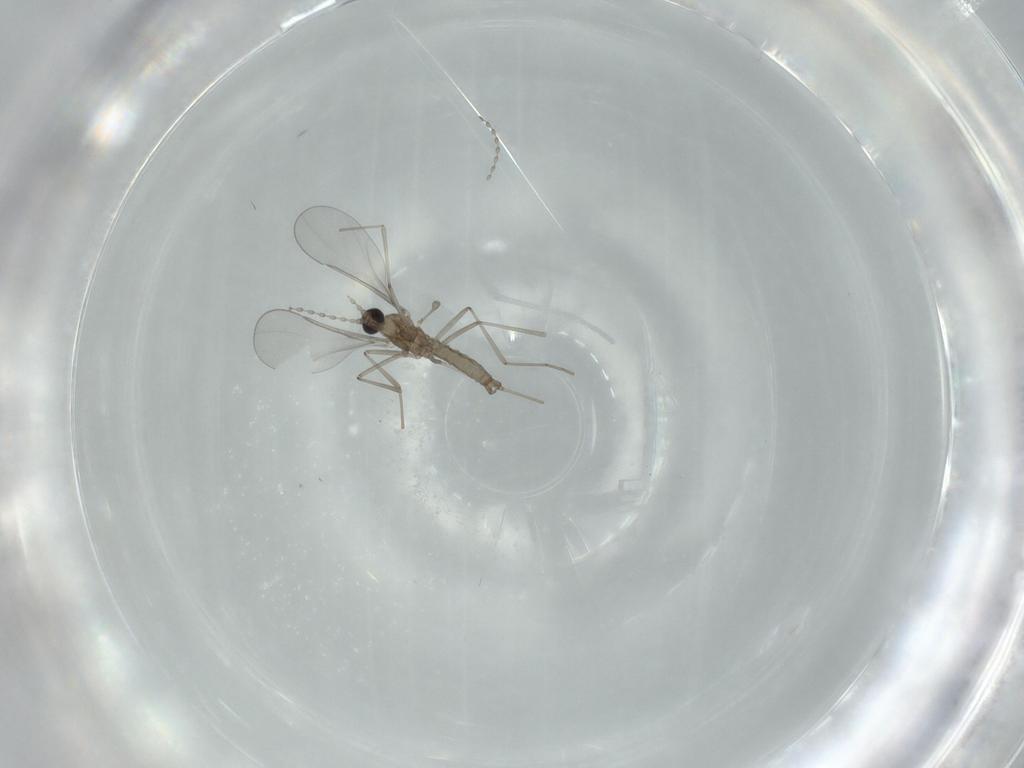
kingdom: Animalia
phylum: Arthropoda
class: Insecta
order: Diptera
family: Cecidomyiidae
